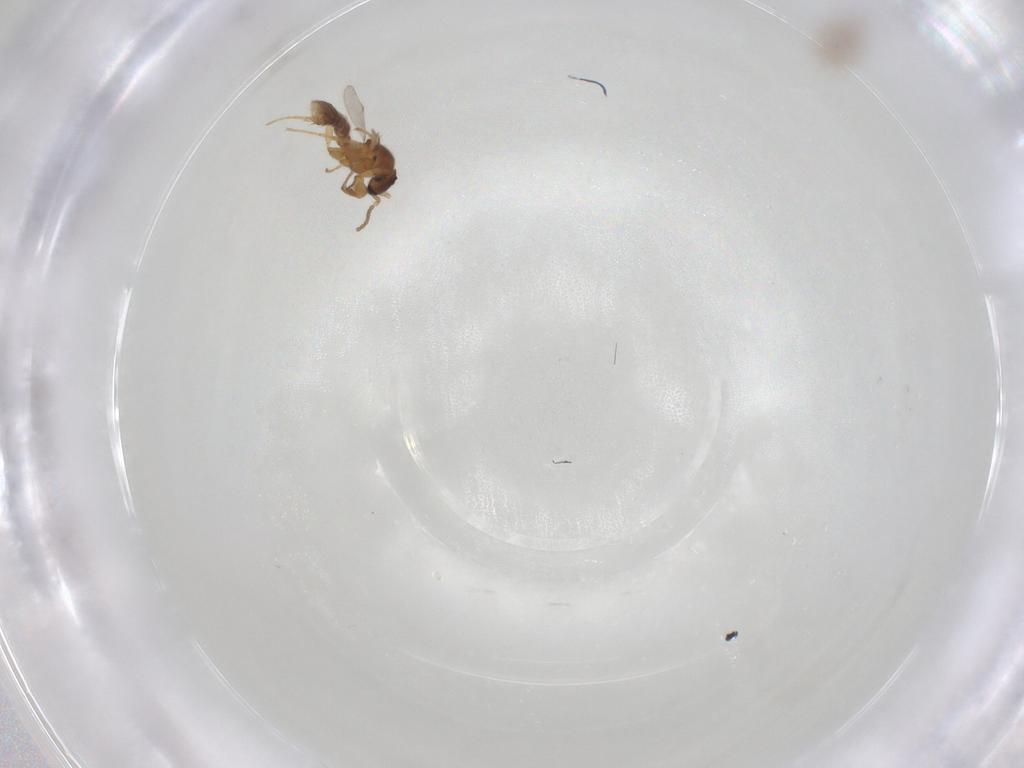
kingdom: Animalia
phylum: Arthropoda
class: Insecta
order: Hymenoptera
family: Formicidae
